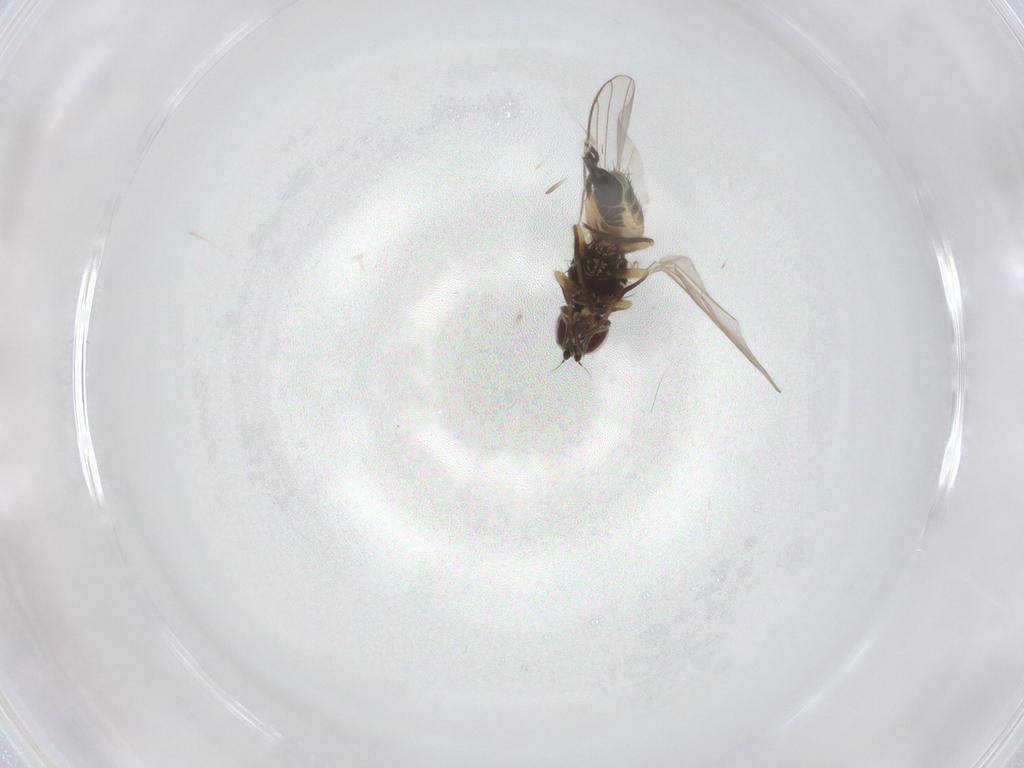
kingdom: Animalia
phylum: Arthropoda
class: Insecta
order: Diptera
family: Agromyzidae
